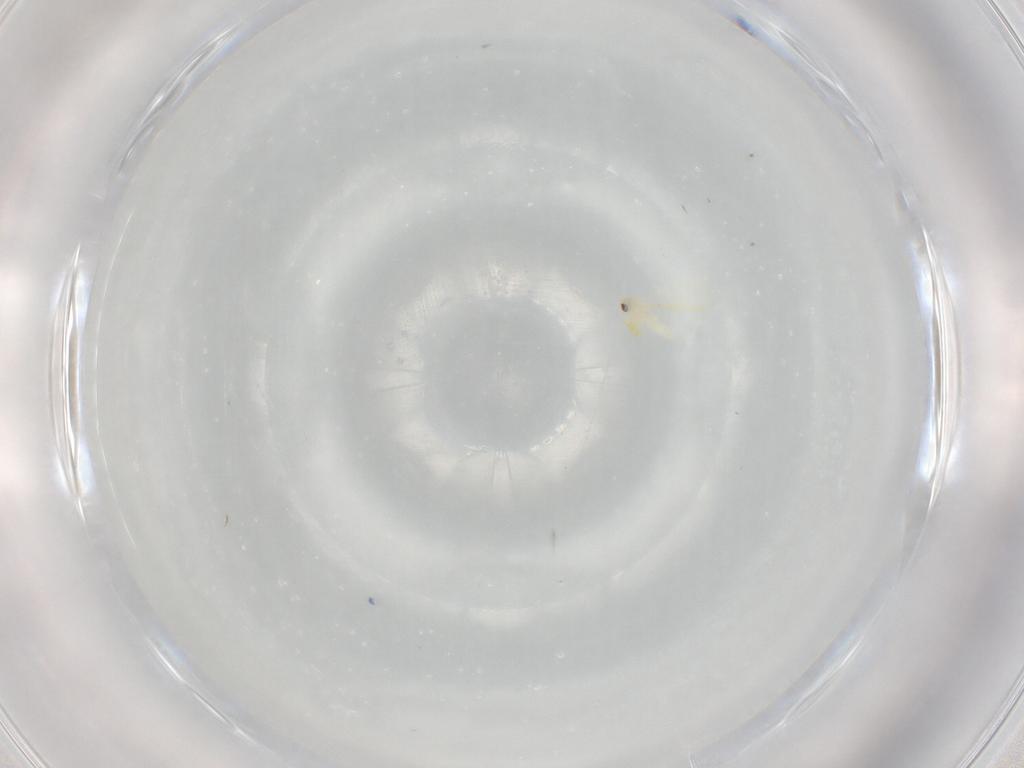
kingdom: Animalia
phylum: Arthropoda
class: Insecta
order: Hemiptera
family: Aleyrodidae
